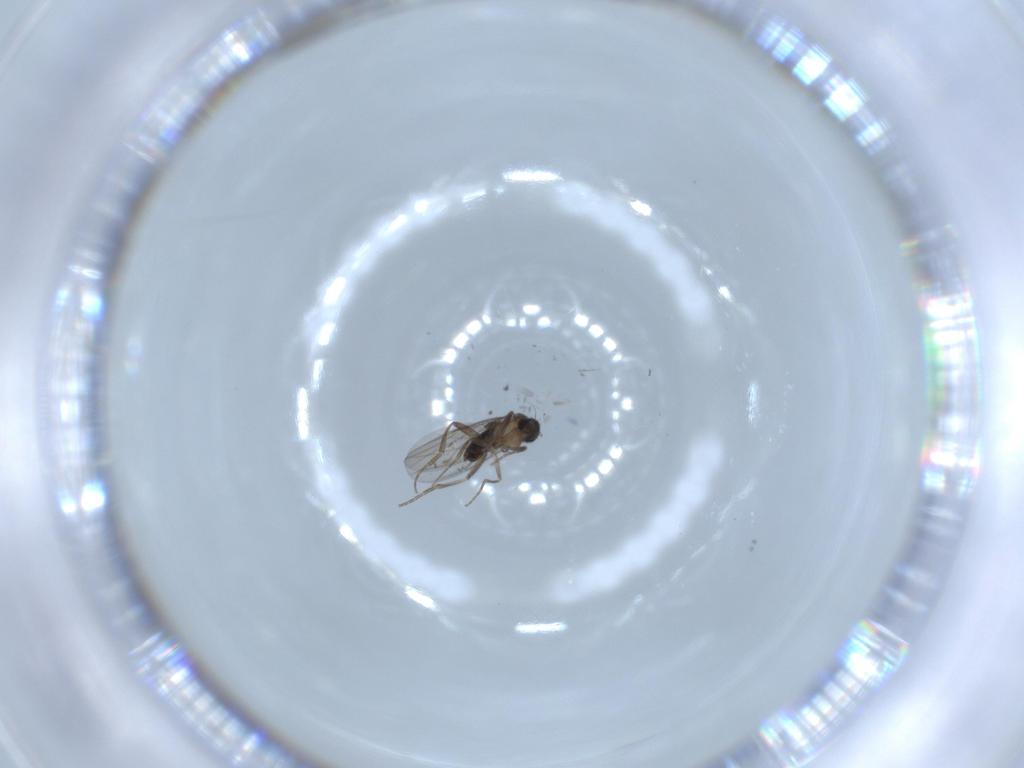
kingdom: Animalia
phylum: Arthropoda
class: Insecta
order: Diptera
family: Phoridae
